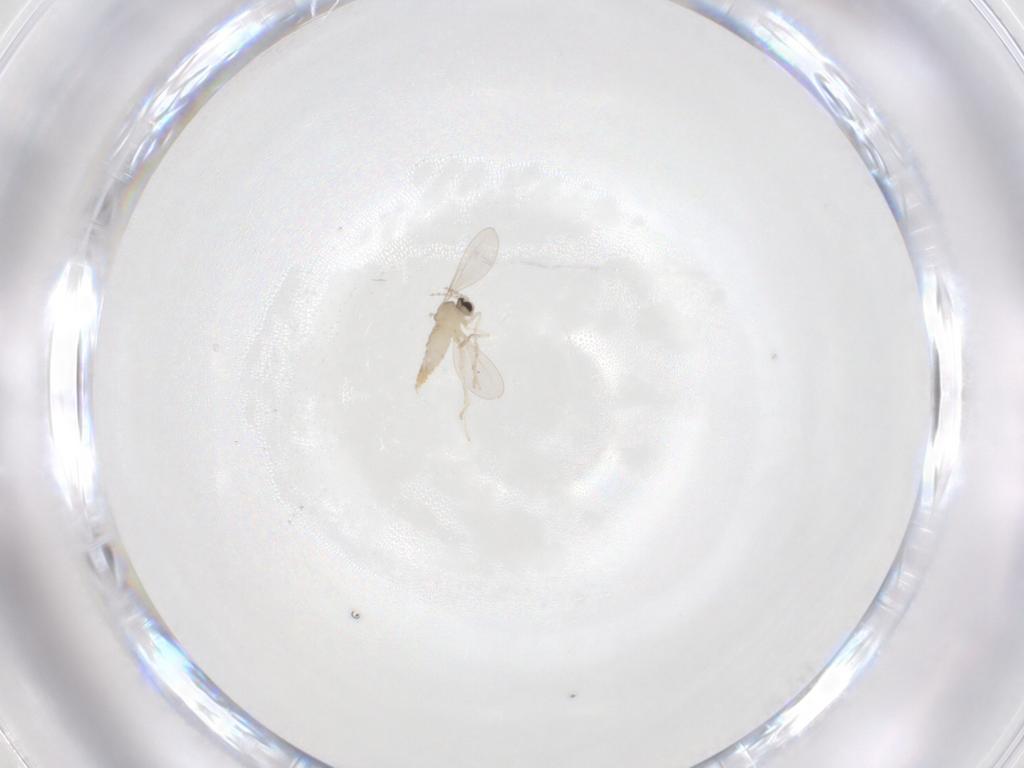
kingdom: Animalia
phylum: Arthropoda
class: Insecta
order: Diptera
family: Cecidomyiidae
